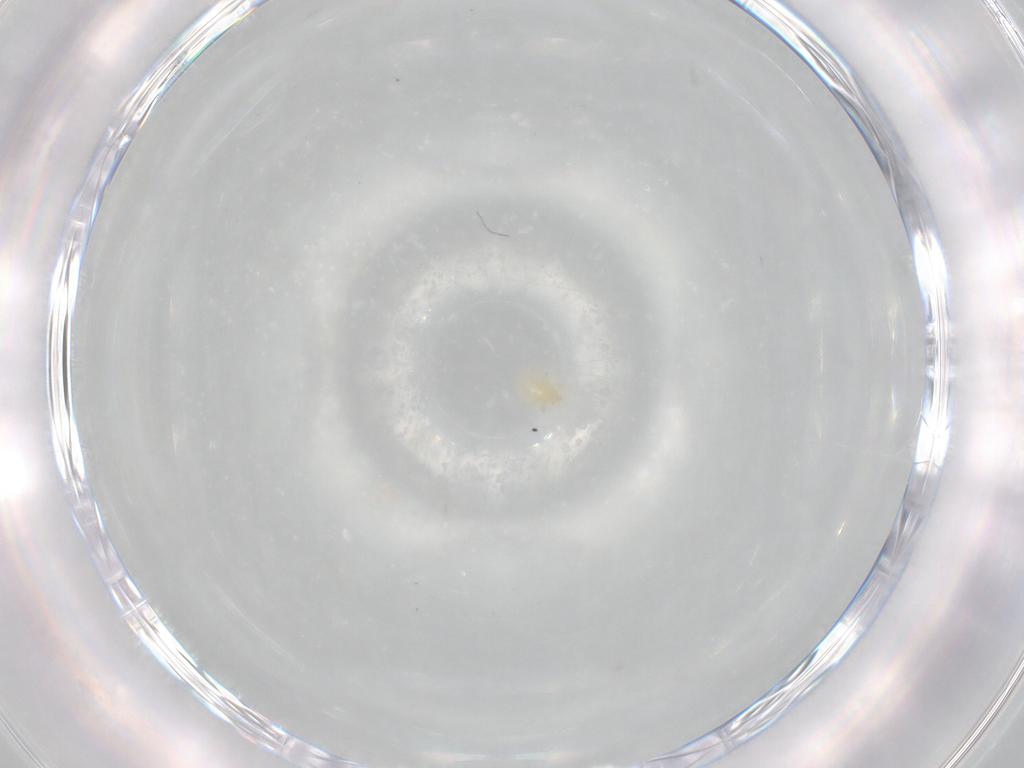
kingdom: Animalia
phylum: Arthropoda
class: Arachnida
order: Trombidiformes
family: Trombidiidae
